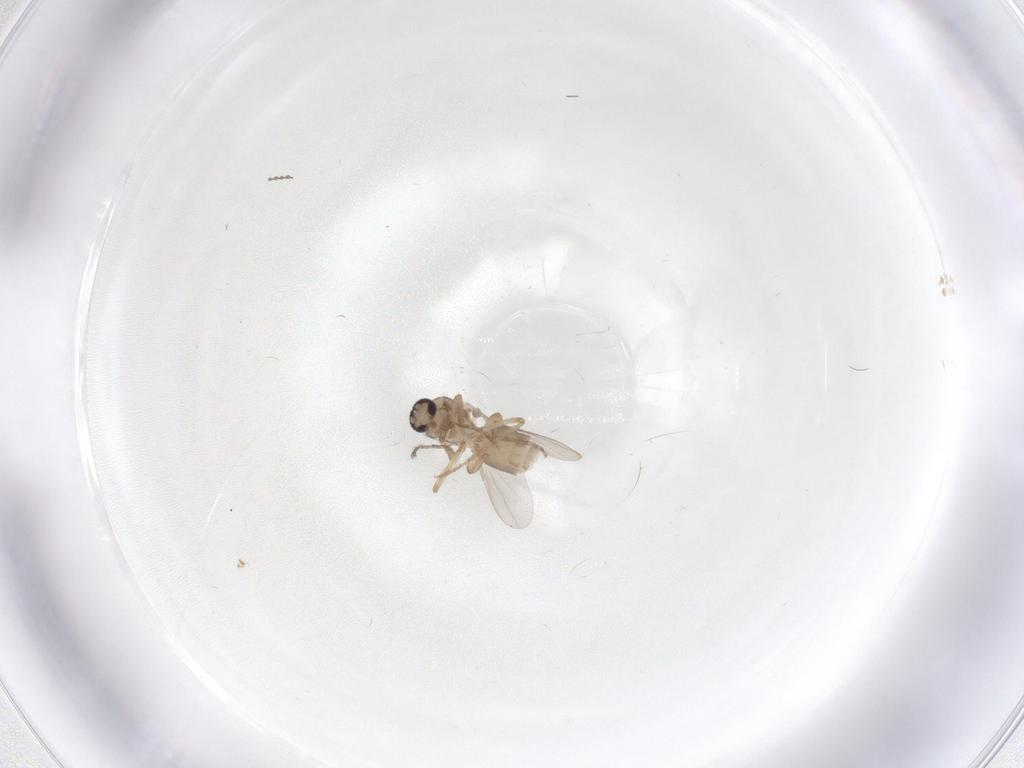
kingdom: Animalia
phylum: Arthropoda
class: Insecta
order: Diptera
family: Ceratopogonidae
